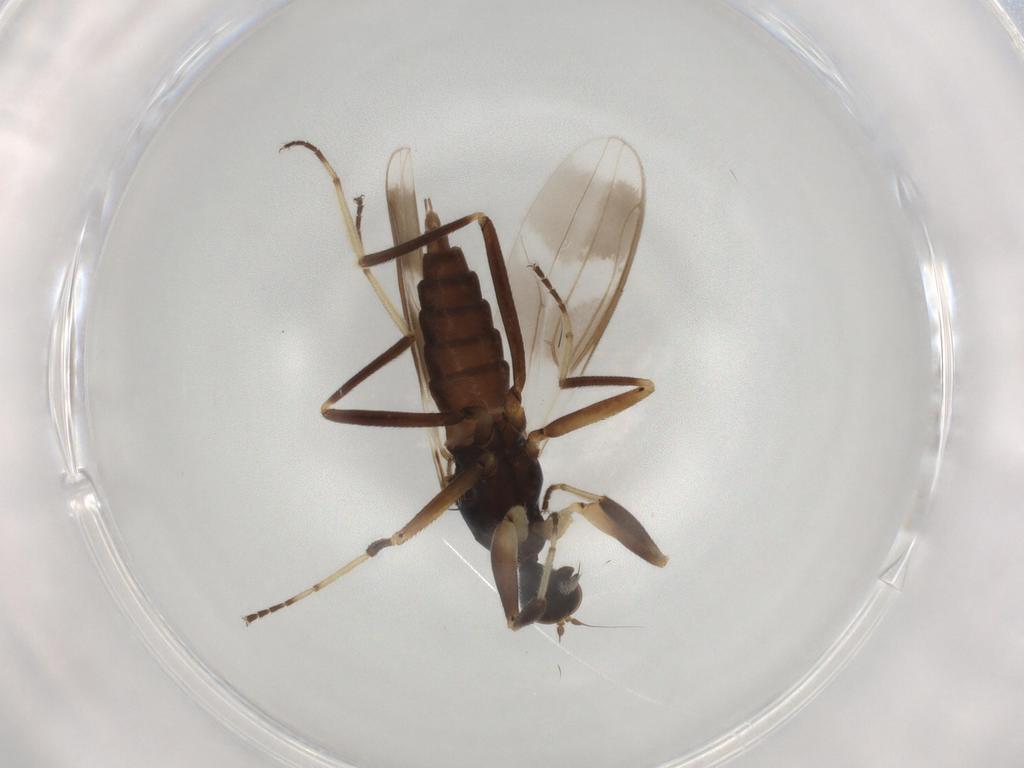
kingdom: Animalia
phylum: Arthropoda
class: Insecta
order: Diptera
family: Hybotidae
